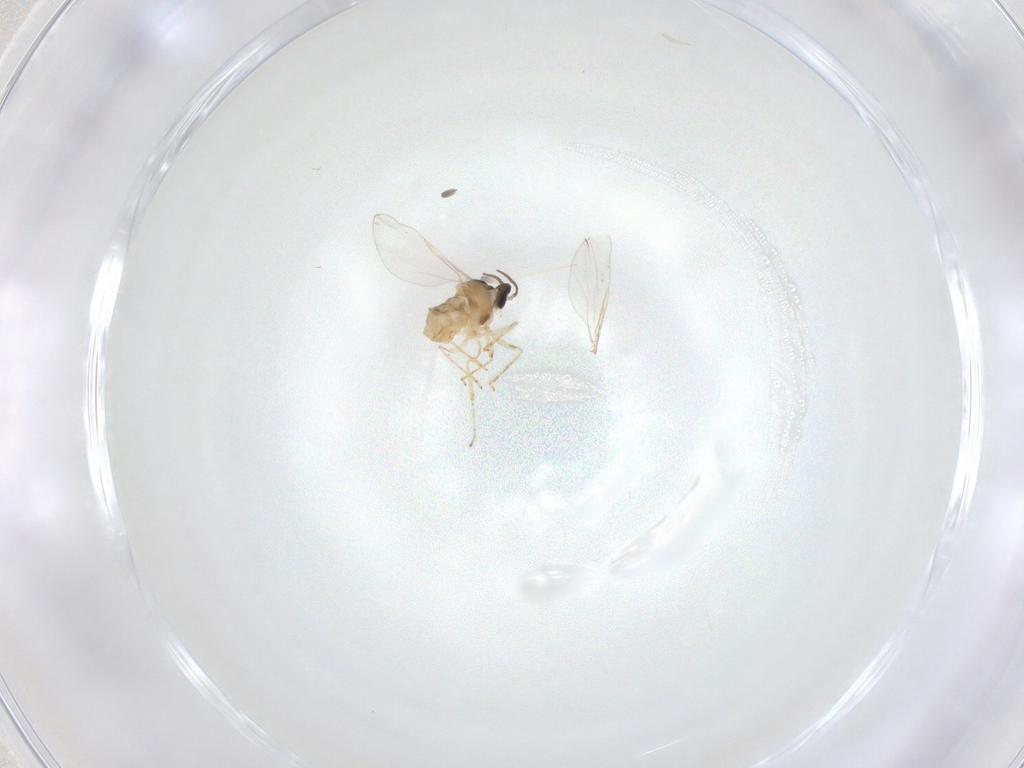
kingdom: Animalia
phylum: Arthropoda
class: Insecta
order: Diptera
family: Cecidomyiidae
